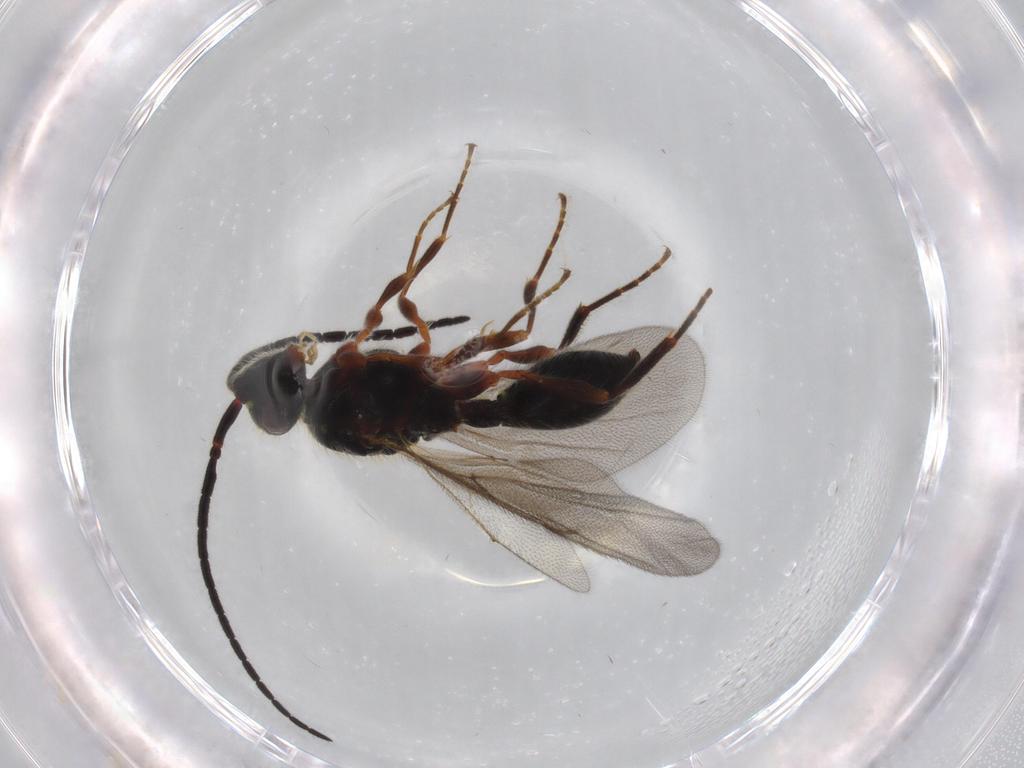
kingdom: Animalia
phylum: Arthropoda
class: Insecta
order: Hymenoptera
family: Diapriidae
